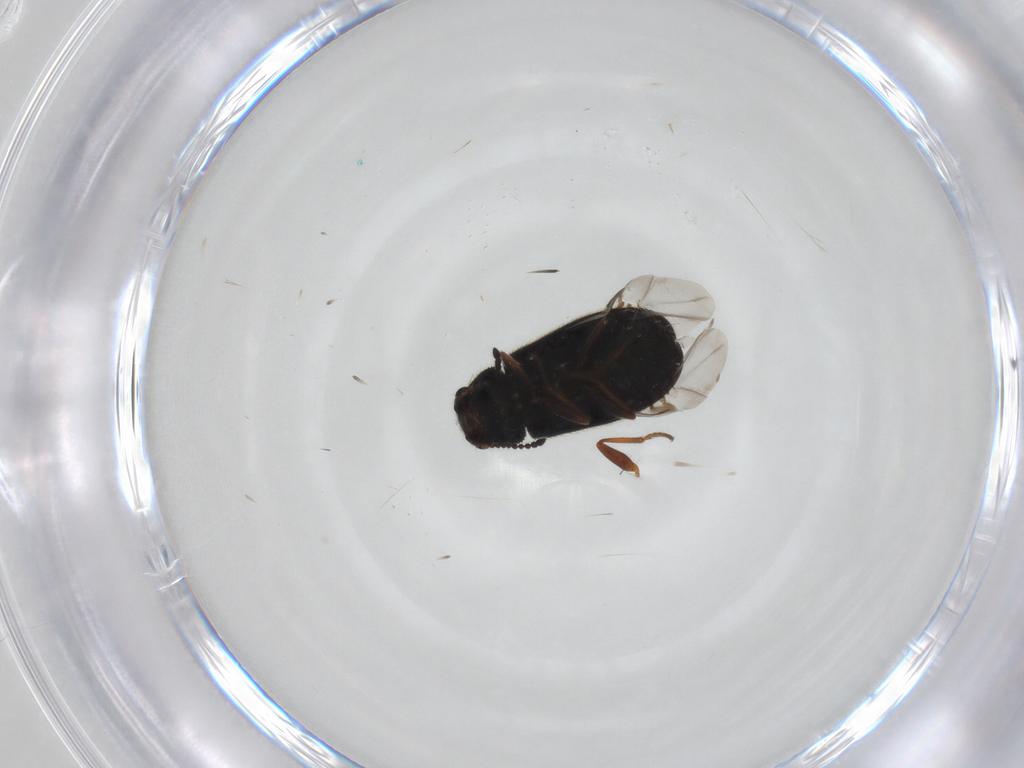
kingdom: Animalia
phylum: Arthropoda
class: Insecta
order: Coleoptera
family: Melyridae
